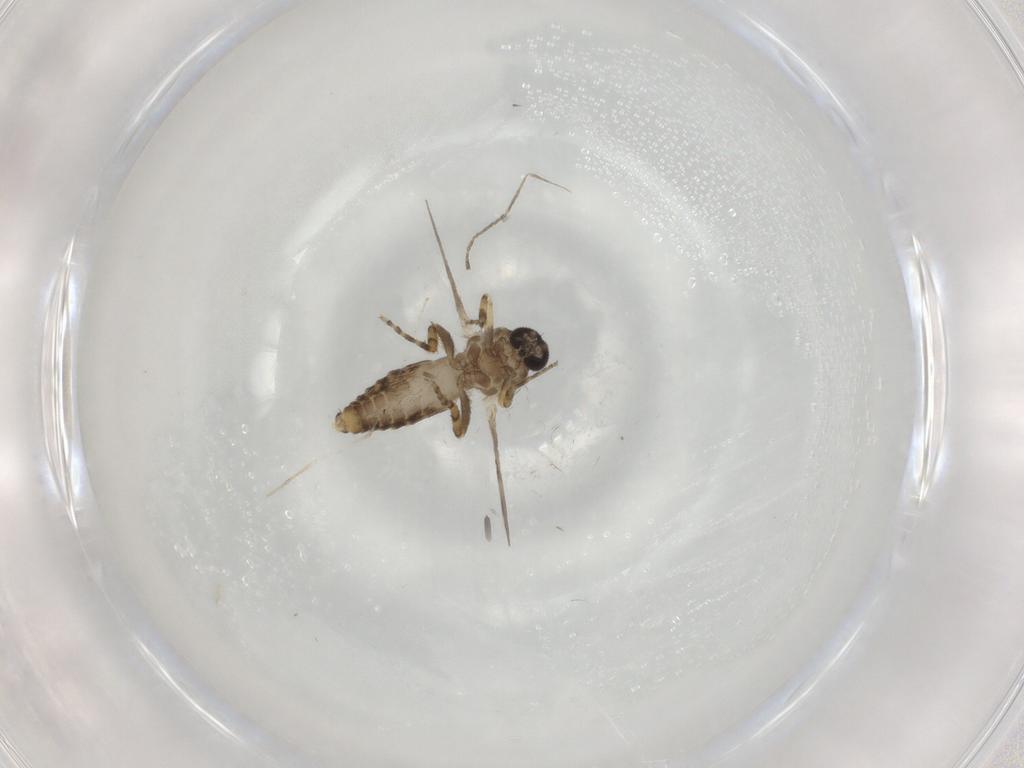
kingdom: Animalia
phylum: Arthropoda
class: Insecta
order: Diptera
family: Ceratopogonidae
